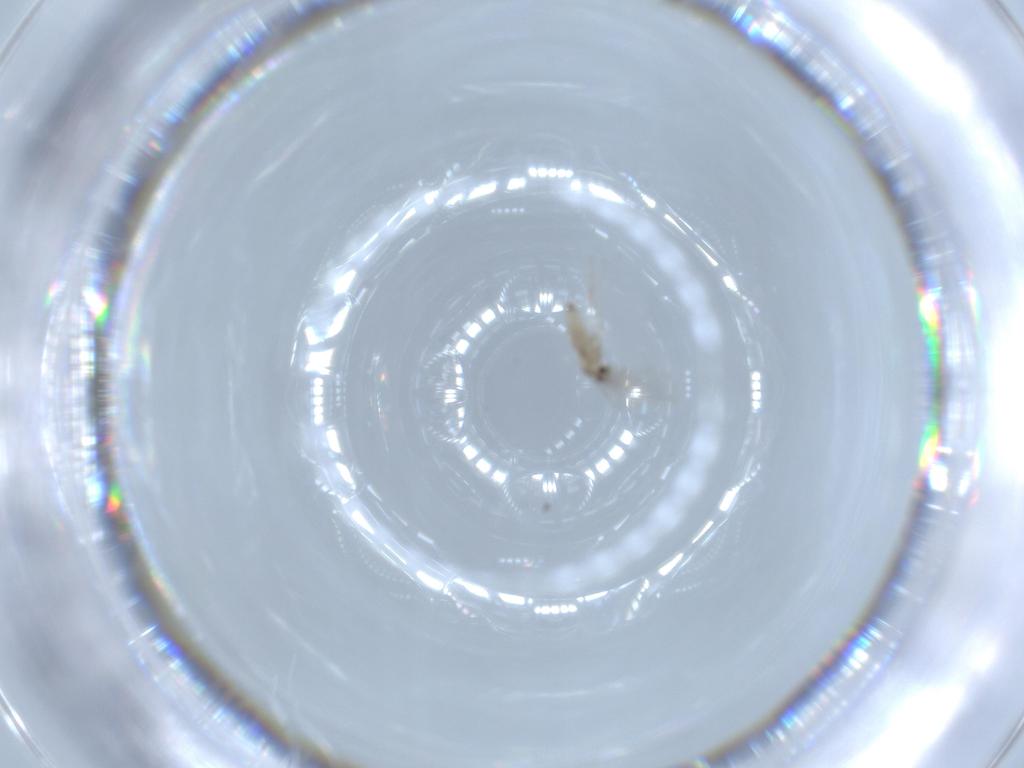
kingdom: Animalia
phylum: Arthropoda
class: Insecta
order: Diptera
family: Cecidomyiidae
